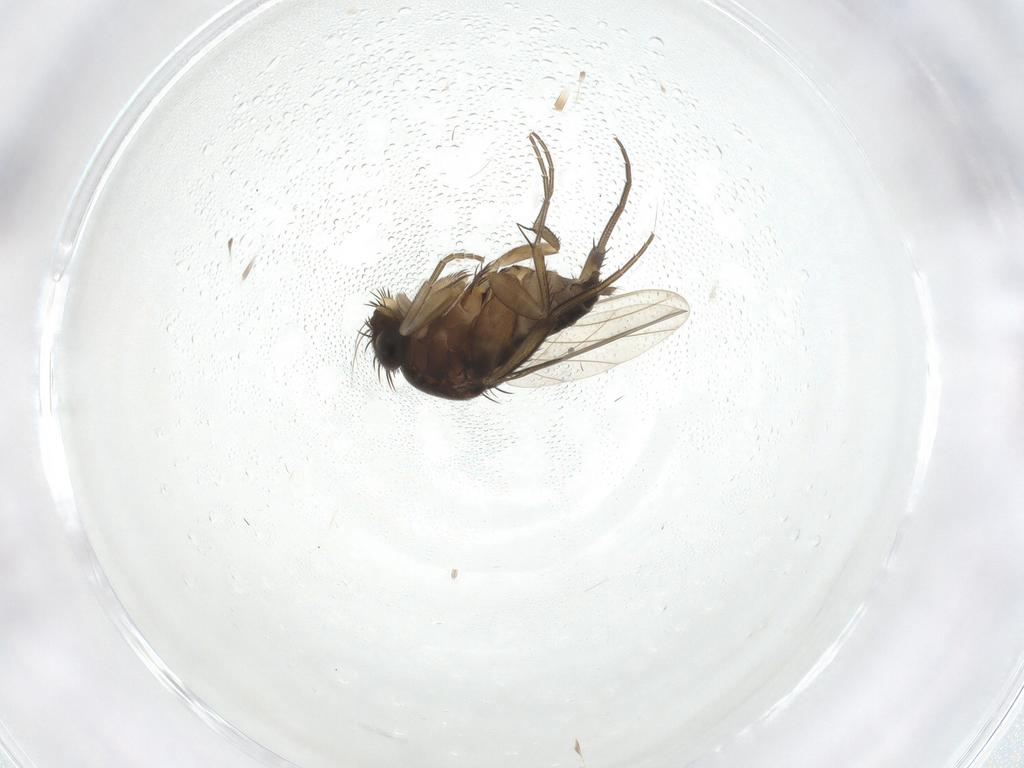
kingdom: Animalia
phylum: Arthropoda
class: Insecta
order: Diptera
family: Phoridae
